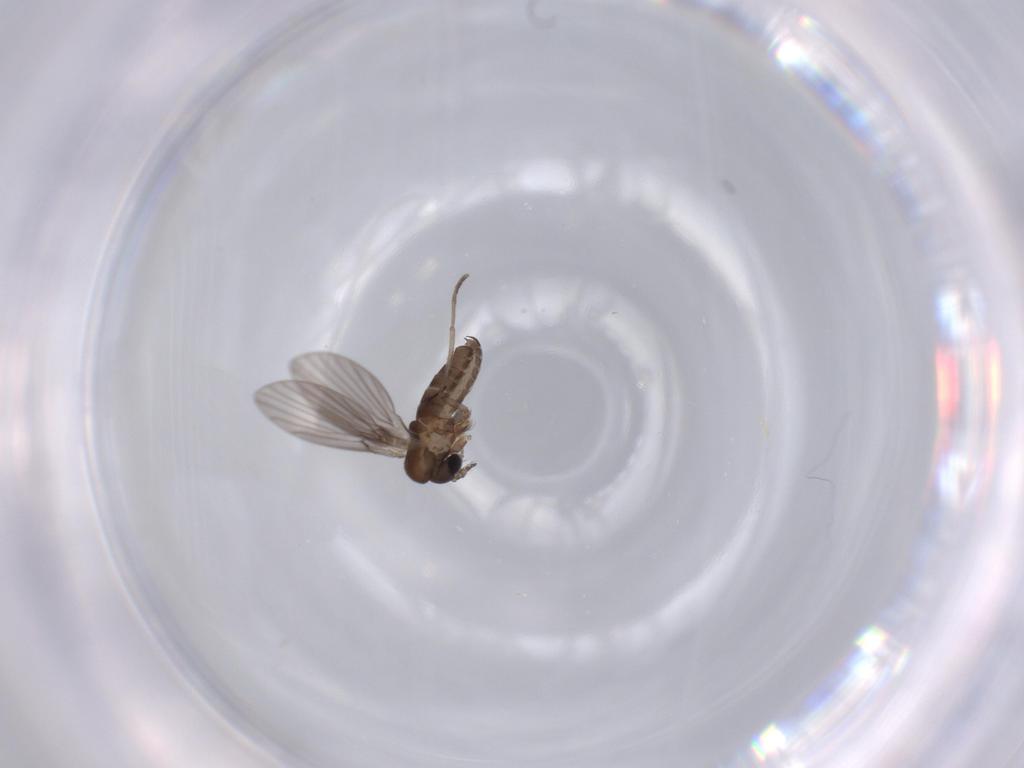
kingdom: Animalia
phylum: Arthropoda
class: Insecta
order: Diptera
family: Psychodidae
